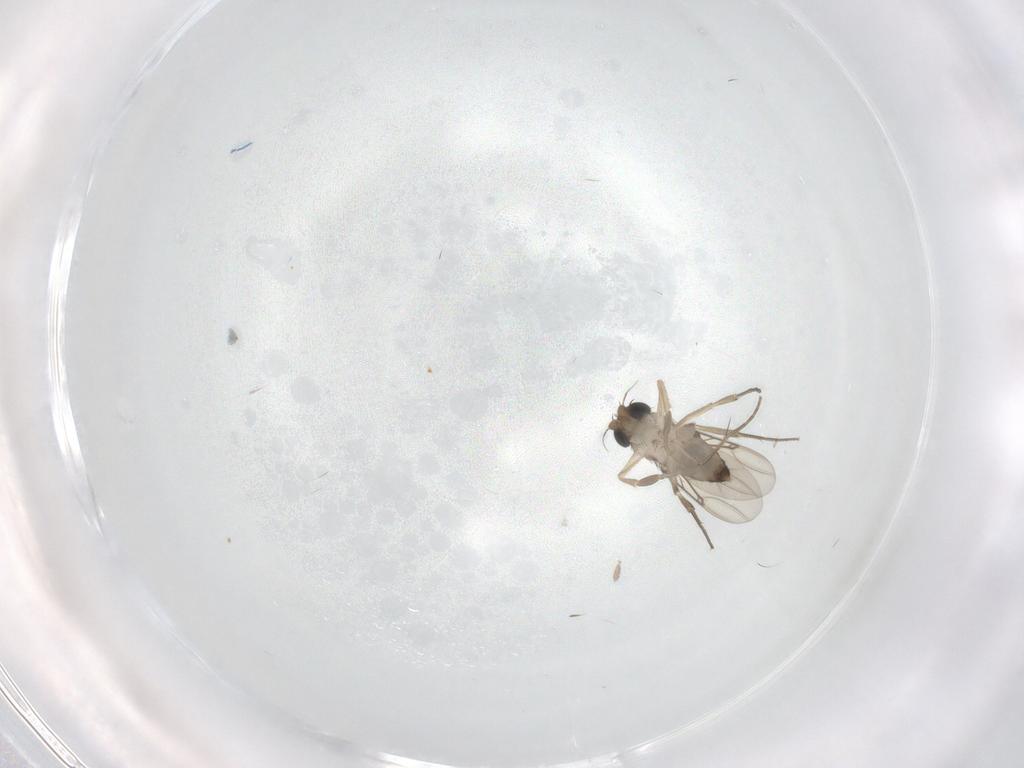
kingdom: Animalia
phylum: Arthropoda
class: Insecta
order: Diptera
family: Phoridae
